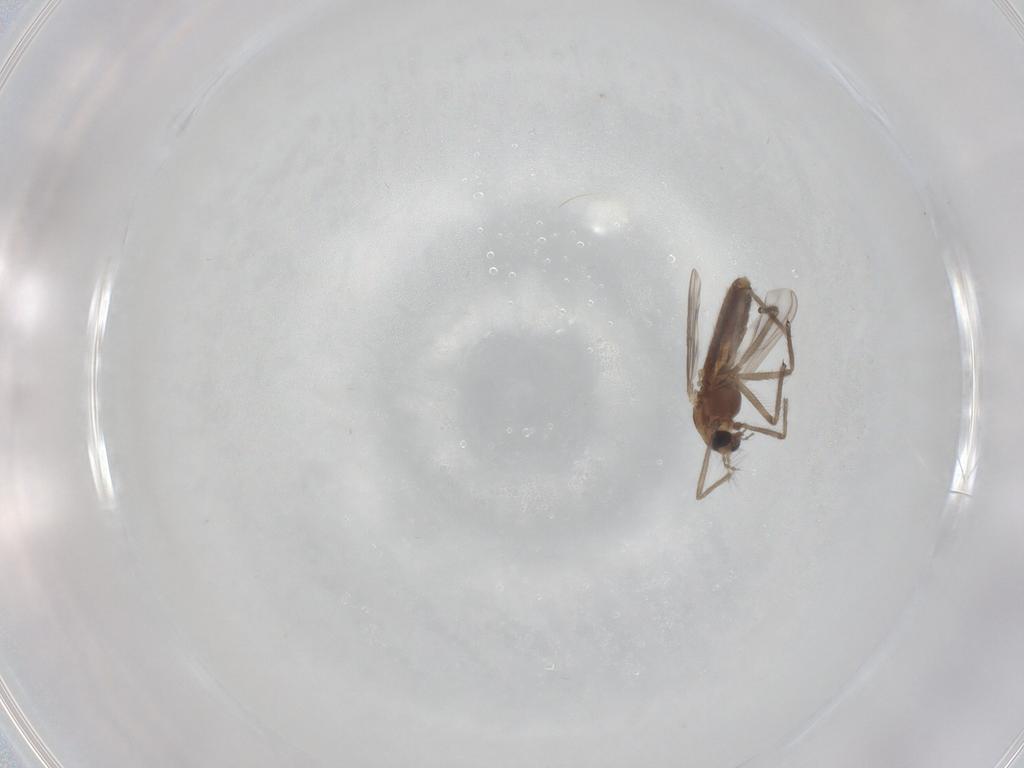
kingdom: Animalia
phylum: Arthropoda
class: Insecta
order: Diptera
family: Chironomidae
